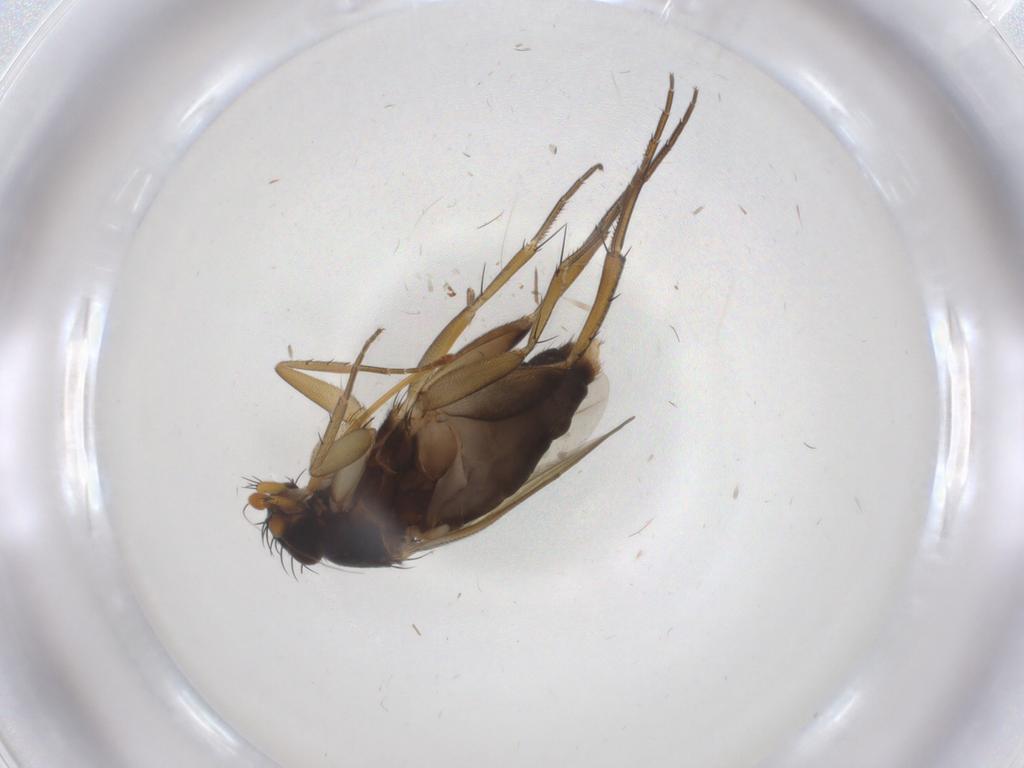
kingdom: Animalia
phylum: Arthropoda
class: Insecta
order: Diptera
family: Phoridae
